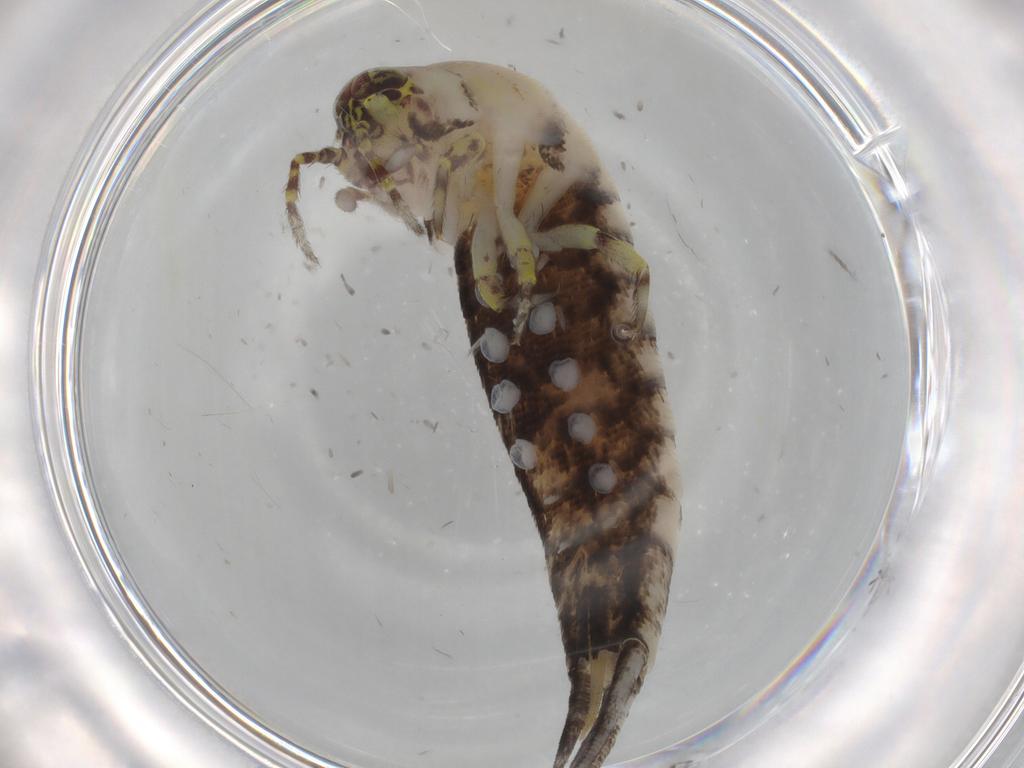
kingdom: Animalia
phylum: Arthropoda
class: Insecta
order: Archaeognatha
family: Machilidae
